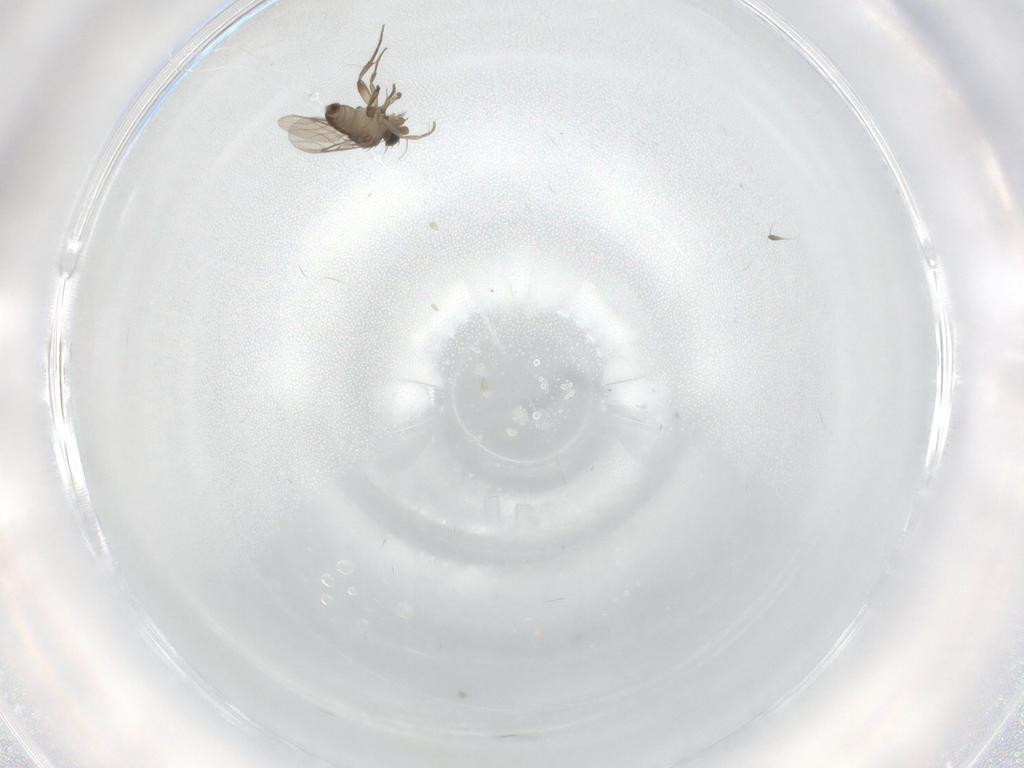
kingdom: Animalia
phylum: Arthropoda
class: Insecta
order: Diptera
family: Phoridae
